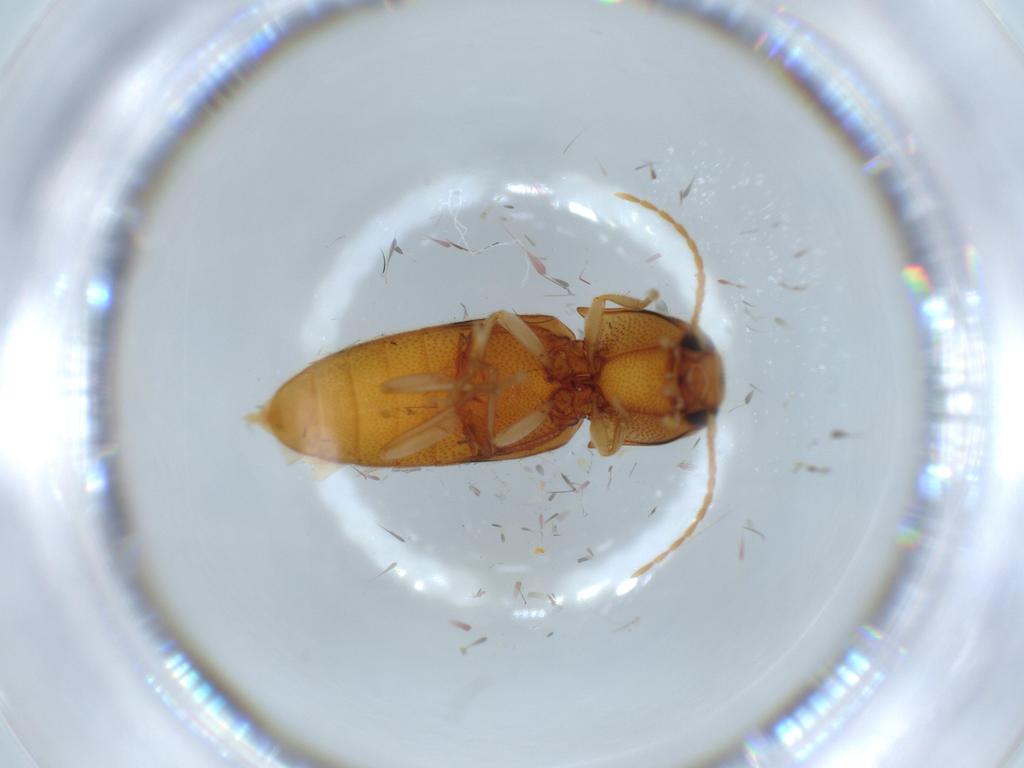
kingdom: Animalia
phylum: Arthropoda
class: Insecta
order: Coleoptera
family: Elateridae
